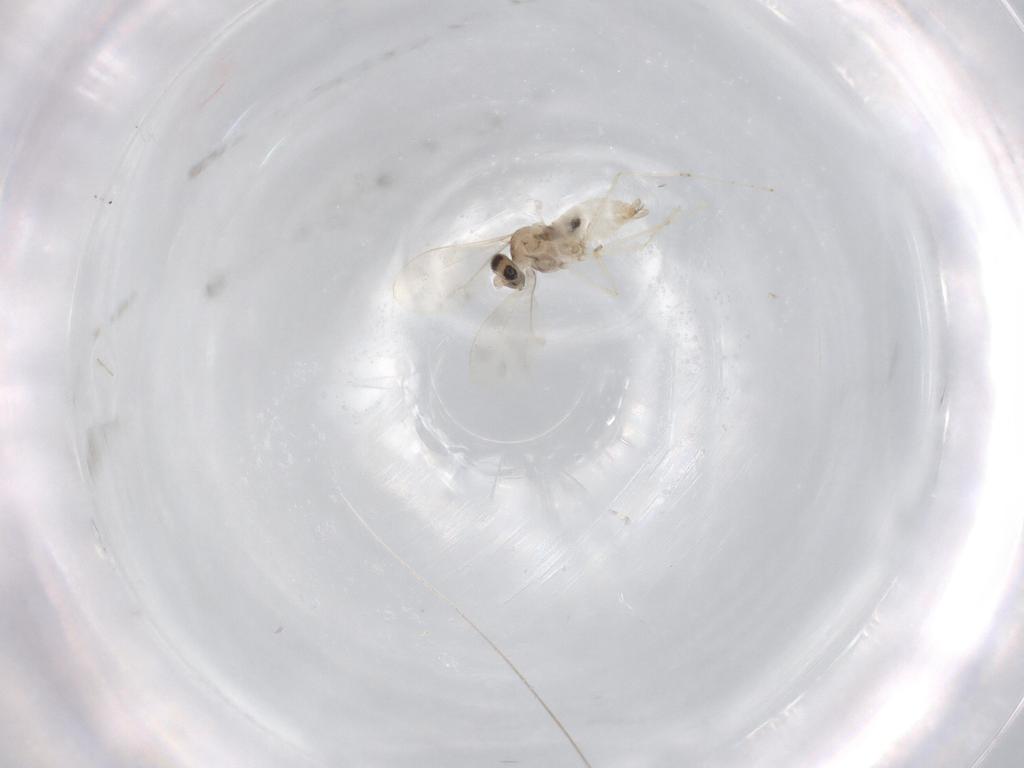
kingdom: Animalia
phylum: Arthropoda
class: Insecta
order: Diptera
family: Cecidomyiidae
